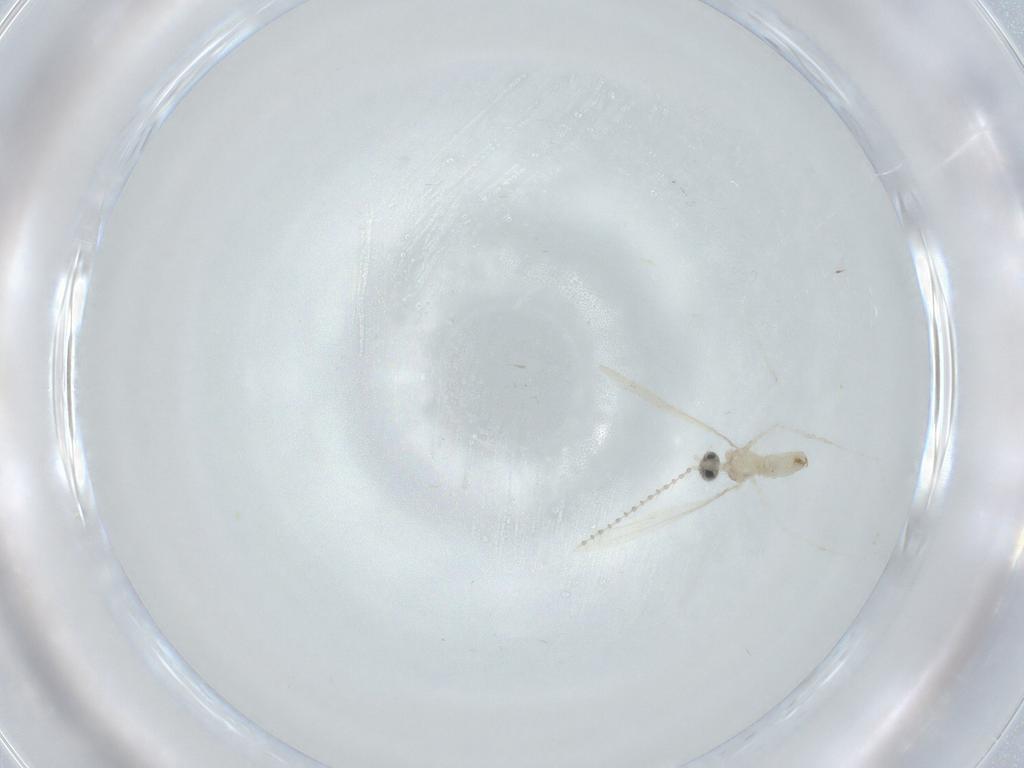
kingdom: Animalia
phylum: Arthropoda
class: Insecta
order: Diptera
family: Cecidomyiidae
